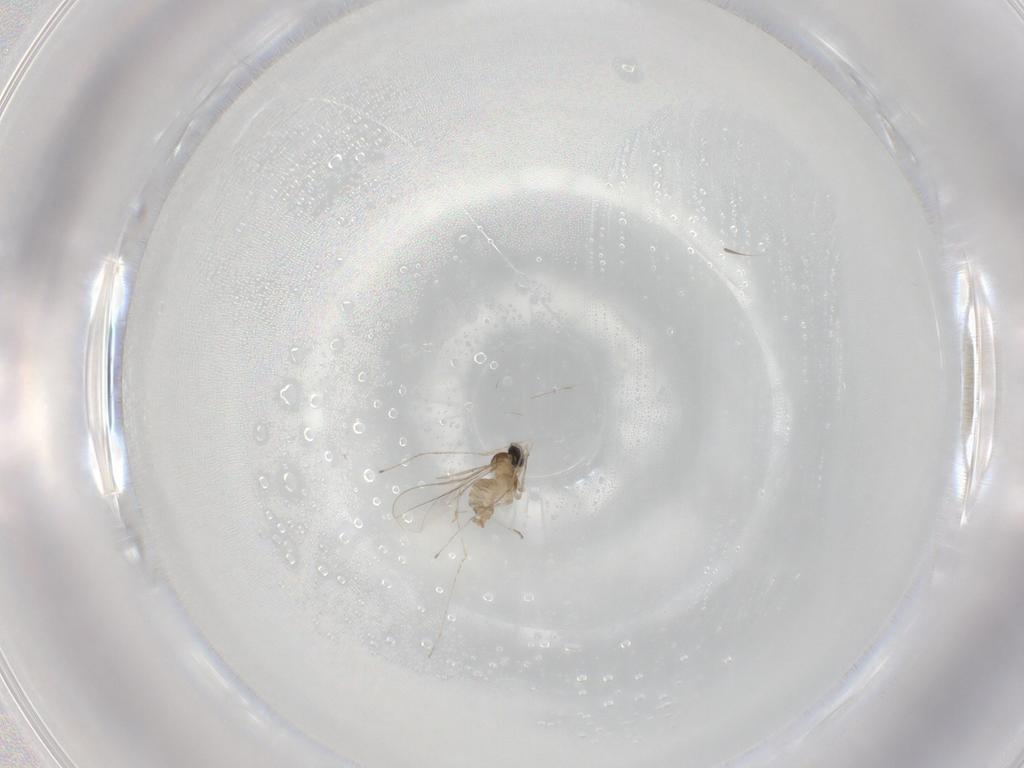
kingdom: Animalia
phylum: Arthropoda
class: Insecta
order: Diptera
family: Cecidomyiidae
